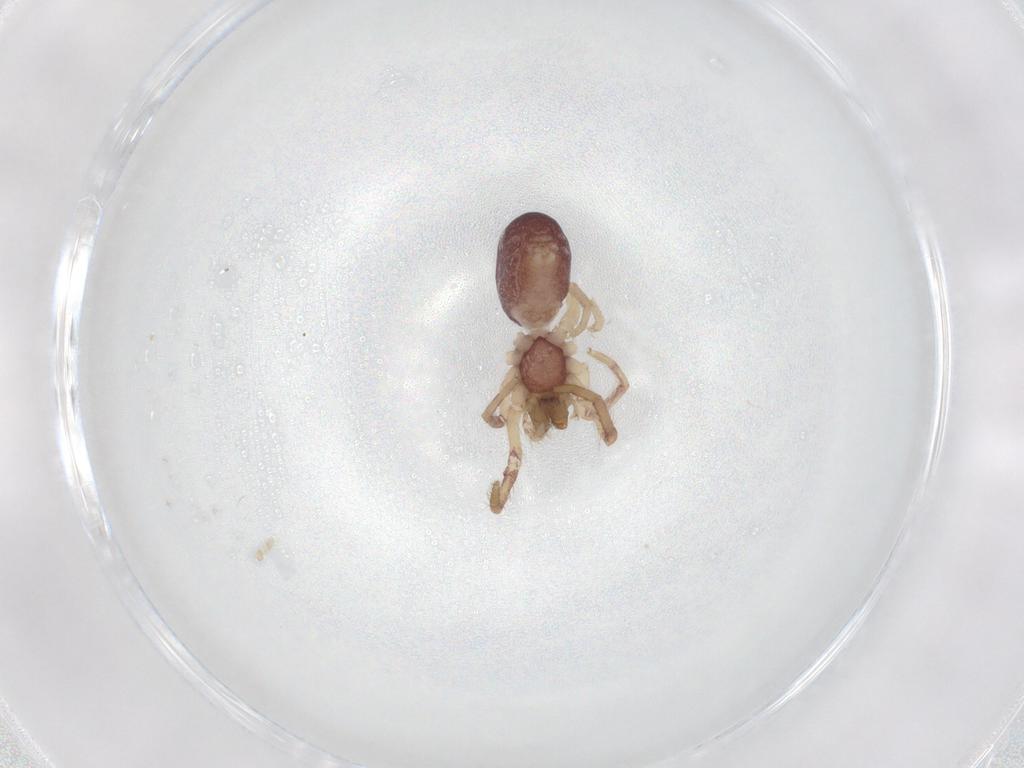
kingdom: Animalia
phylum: Arthropoda
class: Arachnida
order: Araneae
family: Segestriidae
